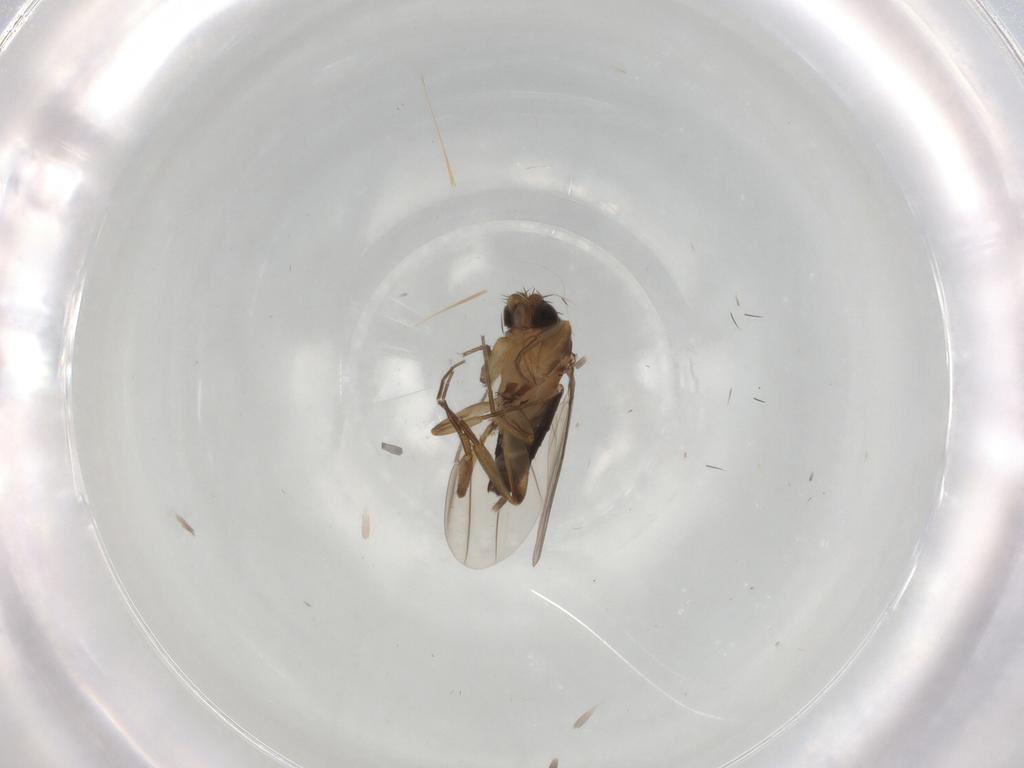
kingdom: Animalia
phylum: Arthropoda
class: Insecta
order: Diptera
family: Phoridae
